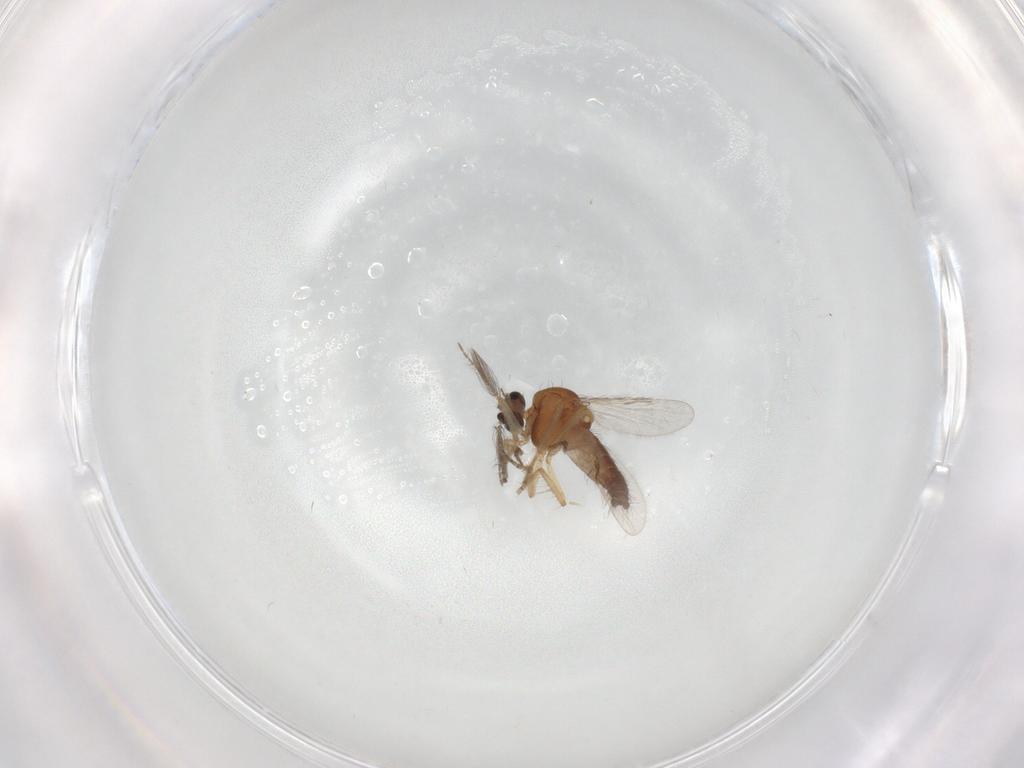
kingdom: Animalia
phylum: Arthropoda
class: Insecta
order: Diptera
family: Ceratopogonidae
